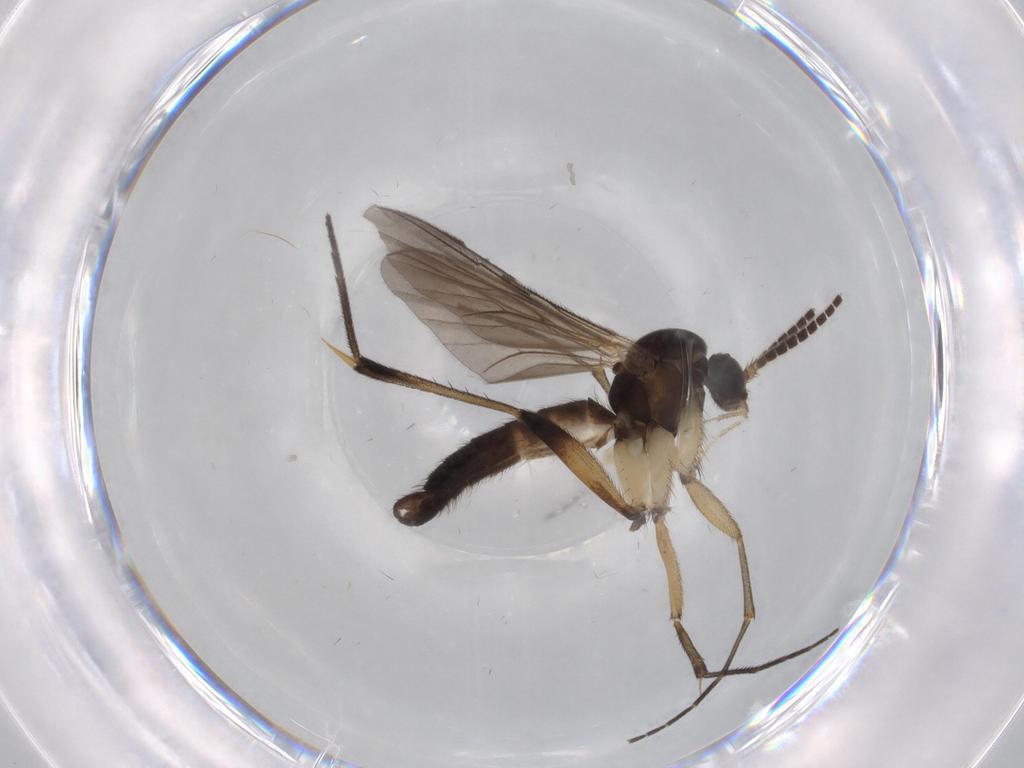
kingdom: Animalia
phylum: Arthropoda
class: Insecta
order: Diptera
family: Mycetophilidae
